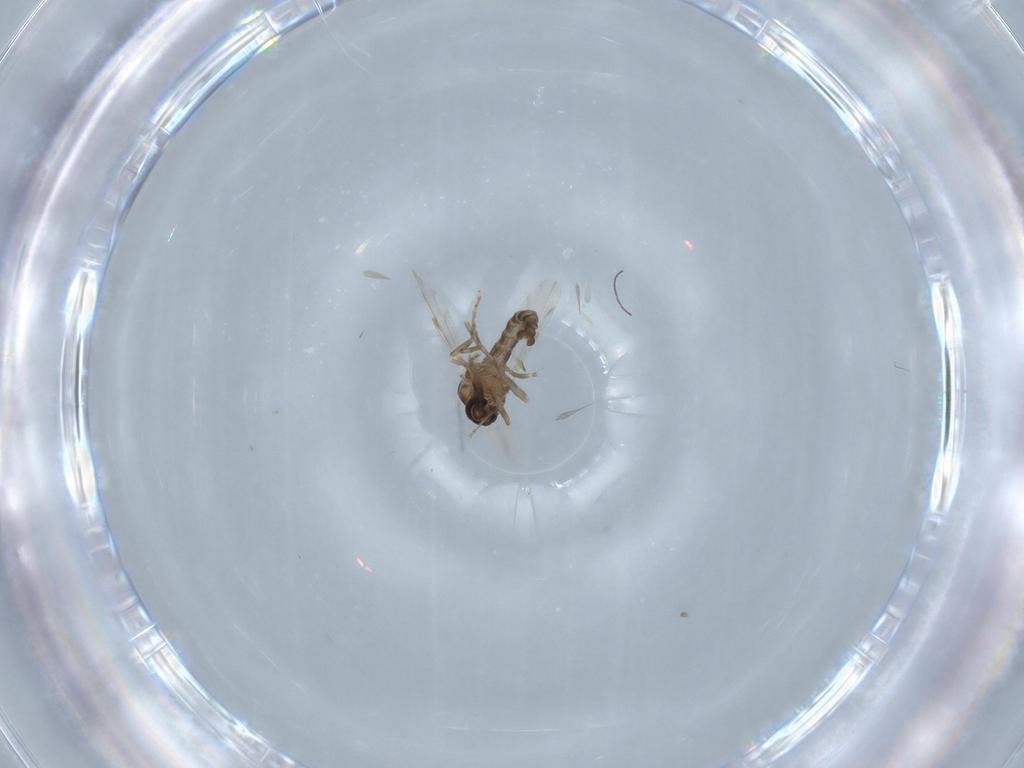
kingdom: Animalia
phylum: Arthropoda
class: Insecta
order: Diptera
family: Ceratopogonidae
